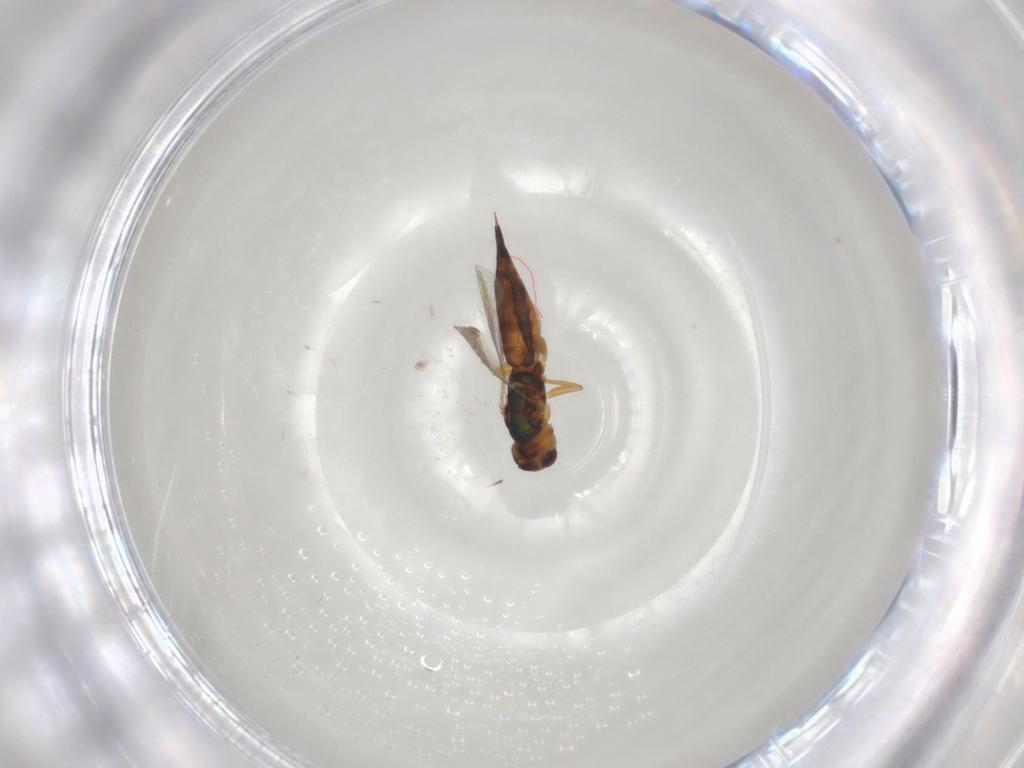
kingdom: Animalia
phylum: Arthropoda
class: Insecta
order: Hymenoptera
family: Eulophidae
